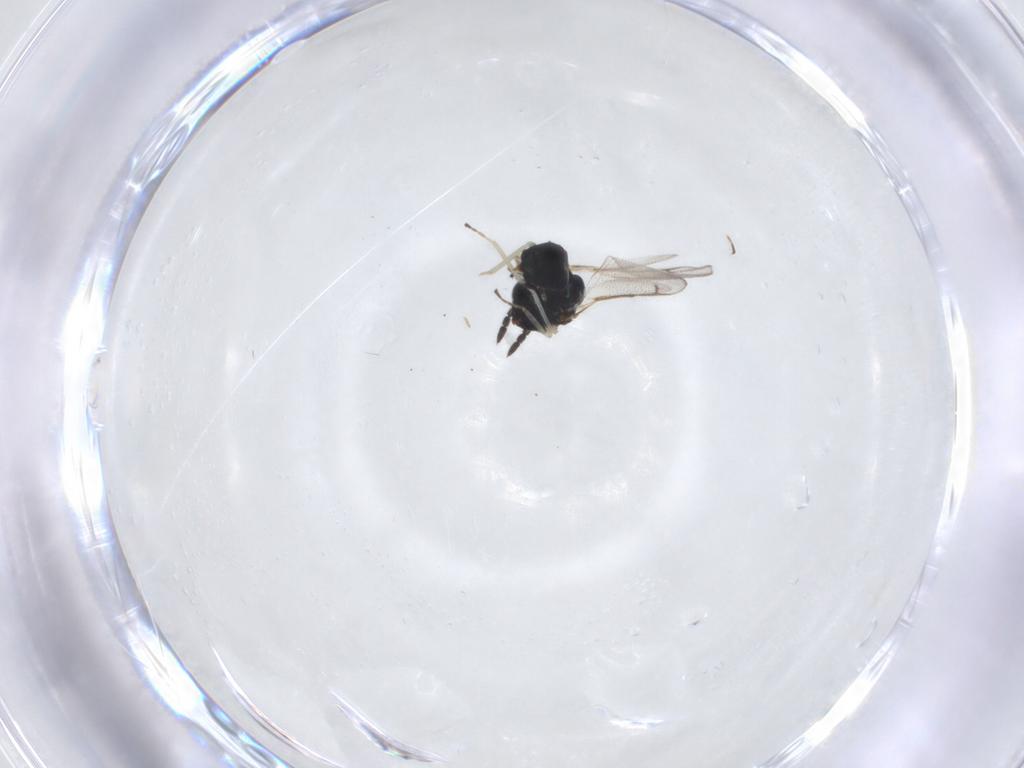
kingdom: Animalia
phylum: Arthropoda
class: Insecta
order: Hymenoptera
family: Eulophidae
